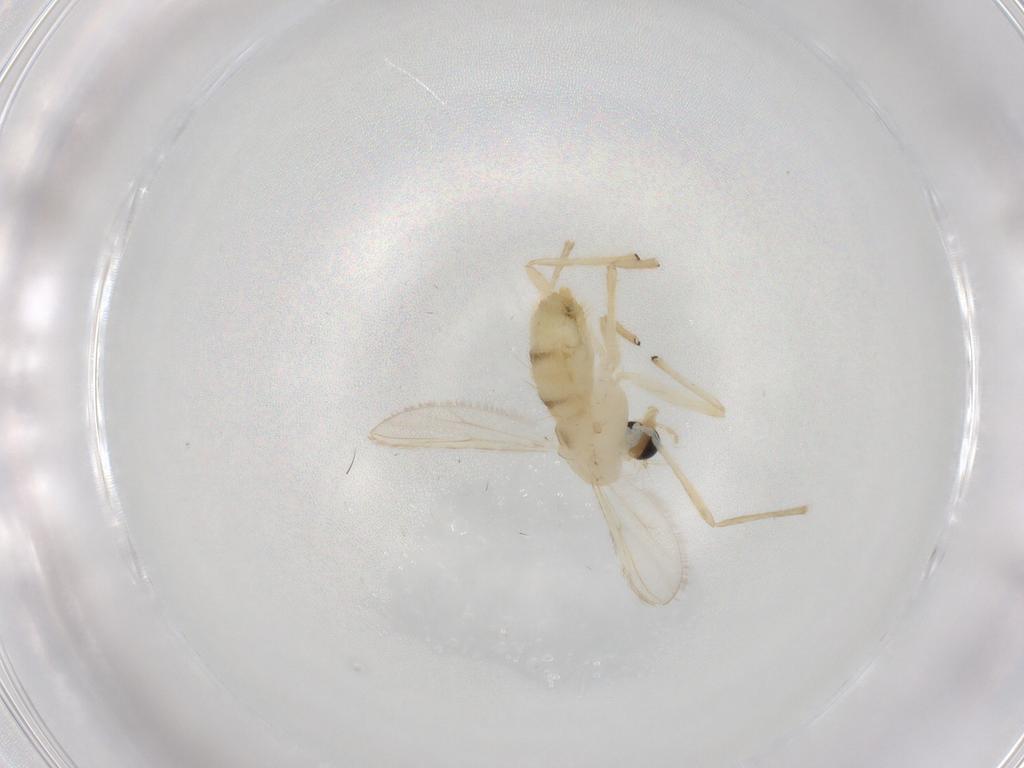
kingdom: Animalia
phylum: Arthropoda
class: Insecta
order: Diptera
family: Chironomidae
